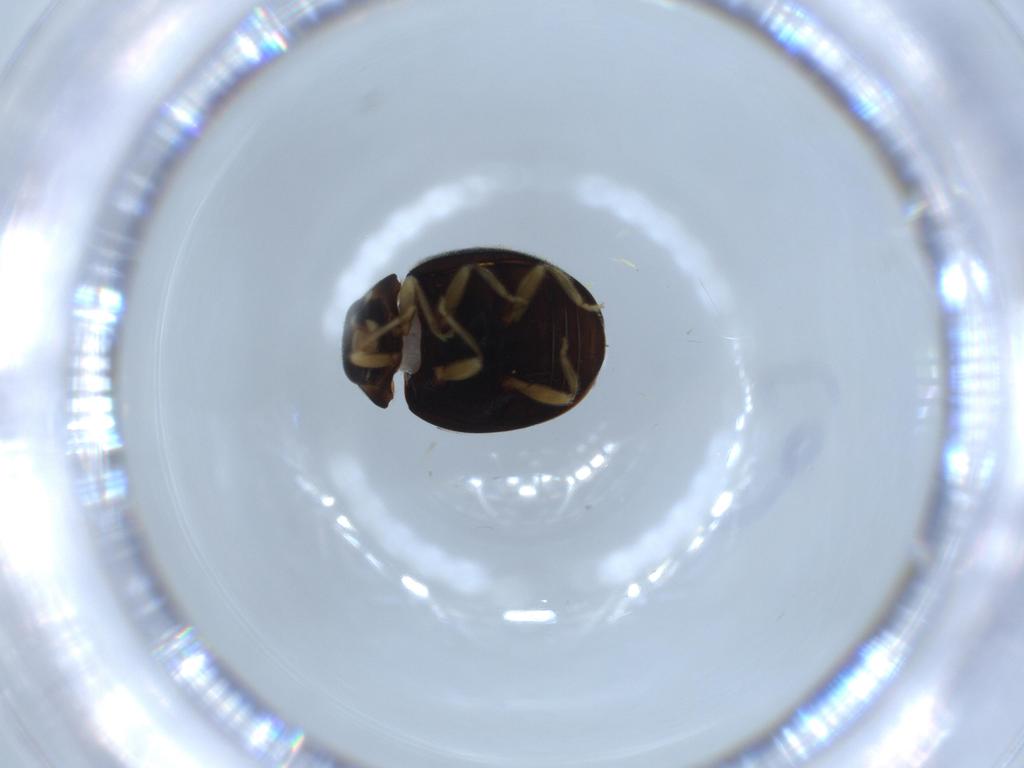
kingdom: Animalia
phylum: Arthropoda
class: Insecta
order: Coleoptera
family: Coccinellidae
